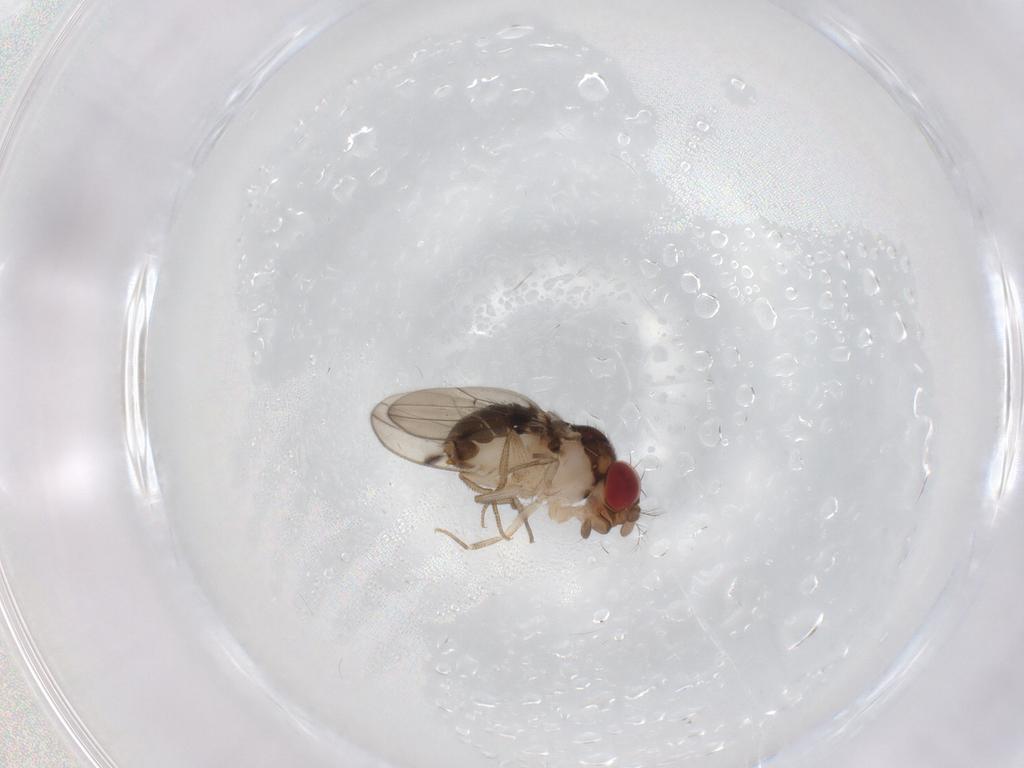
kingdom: Animalia
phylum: Arthropoda
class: Insecta
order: Diptera
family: Drosophilidae
